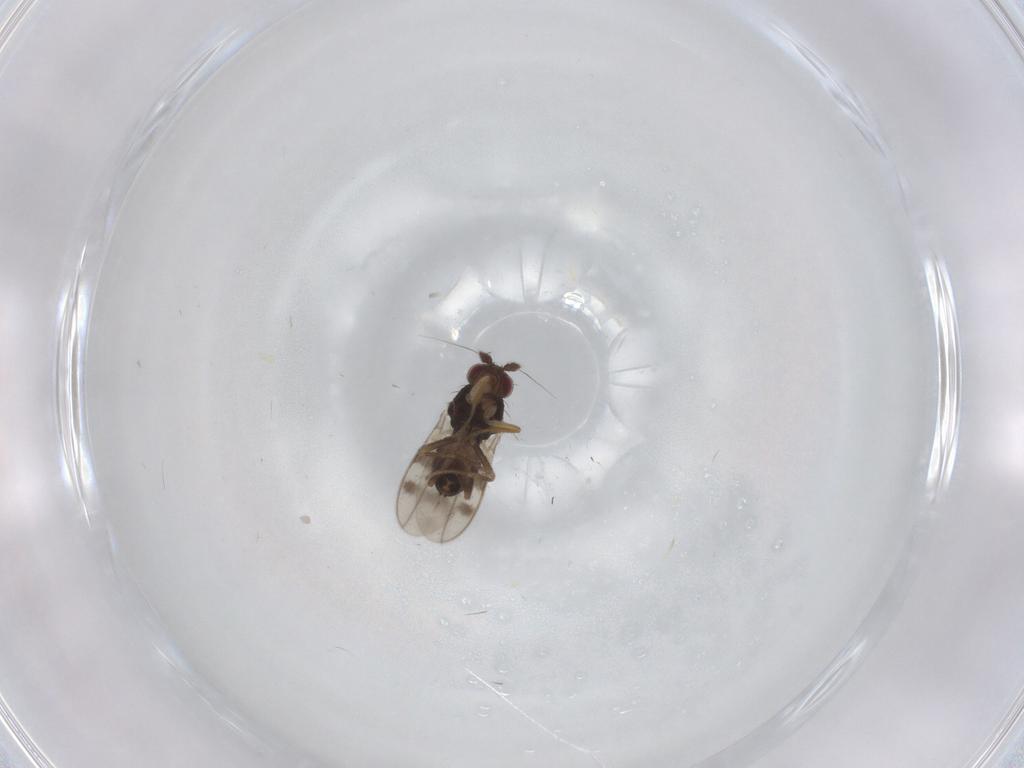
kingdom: Animalia
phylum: Arthropoda
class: Insecta
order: Diptera
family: Sphaeroceridae
